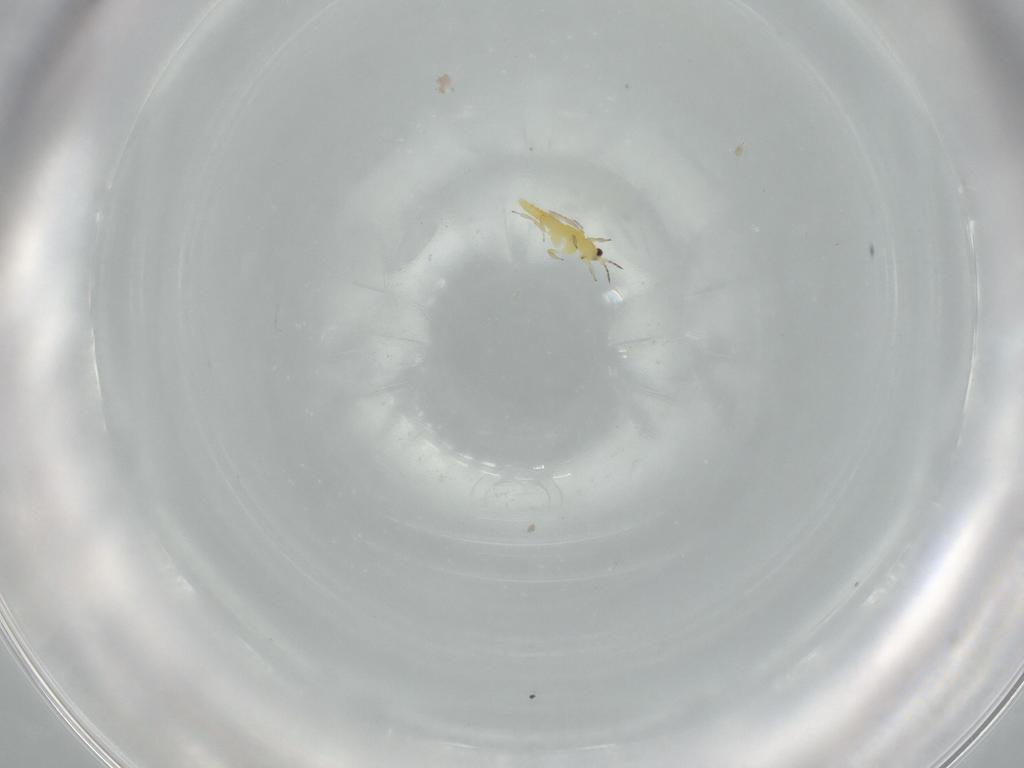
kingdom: Animalia
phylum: Arthropoda
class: Insecta
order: Thysanoptera
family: Thripidae
